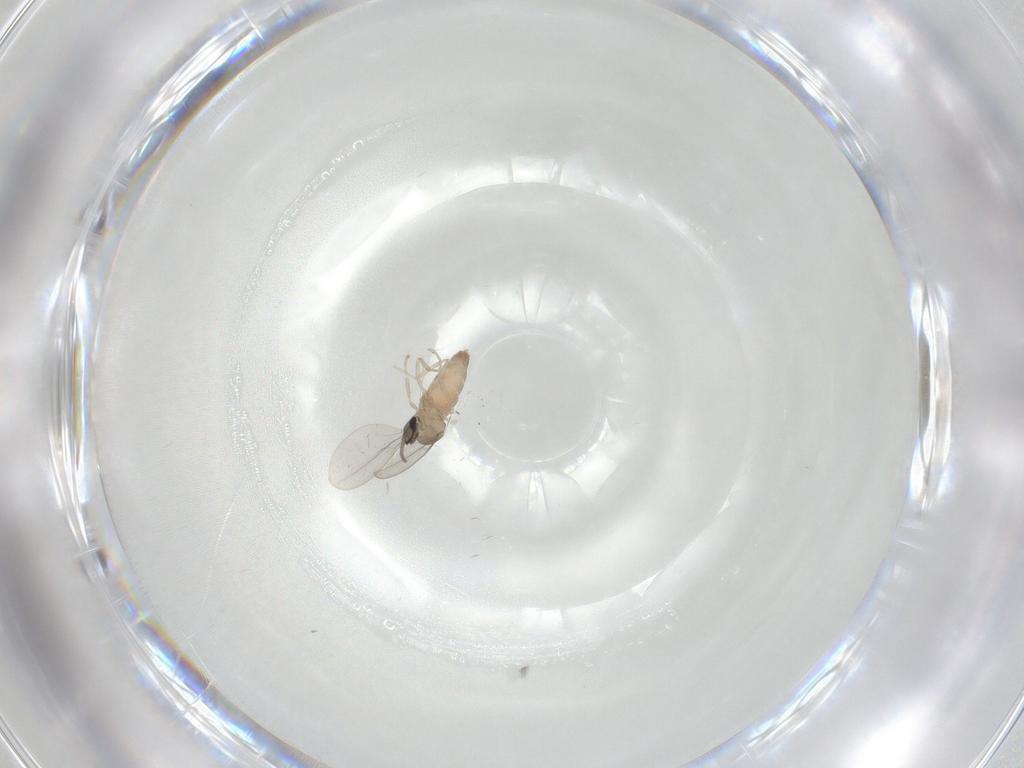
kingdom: Animalia
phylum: Arthropoda
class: Insecta
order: Diptera
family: Cecidomyiidae
